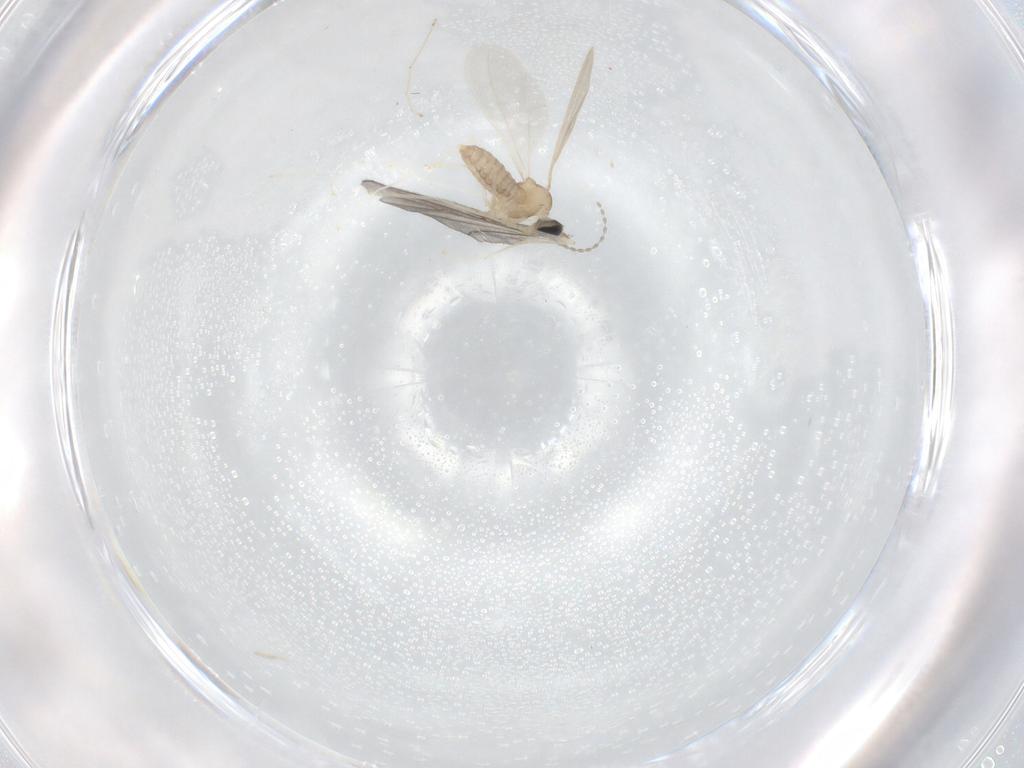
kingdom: Animalia
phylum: Arthropoda
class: Insecta
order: Diptera
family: Cecidomyiidae
